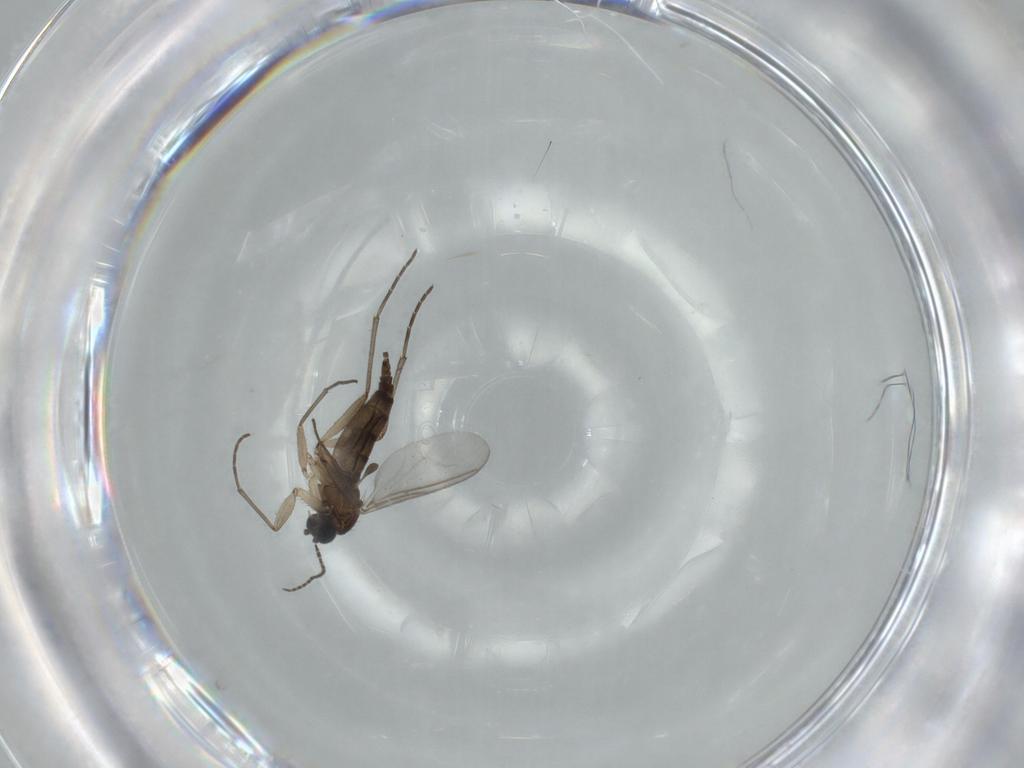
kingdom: Animalia
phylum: Arthropoda
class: Insecta
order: Diptera
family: Sciaridae
